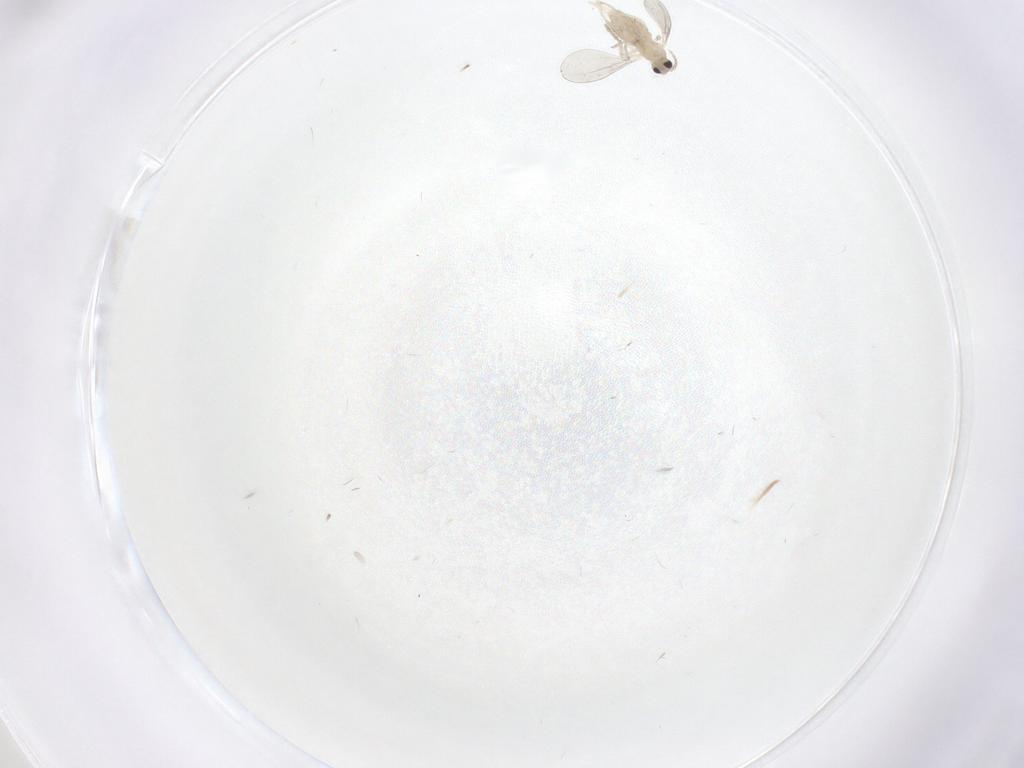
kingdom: Animalia
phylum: Arthropoda
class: Insecta
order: Diptera
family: Cecidomyiidae
